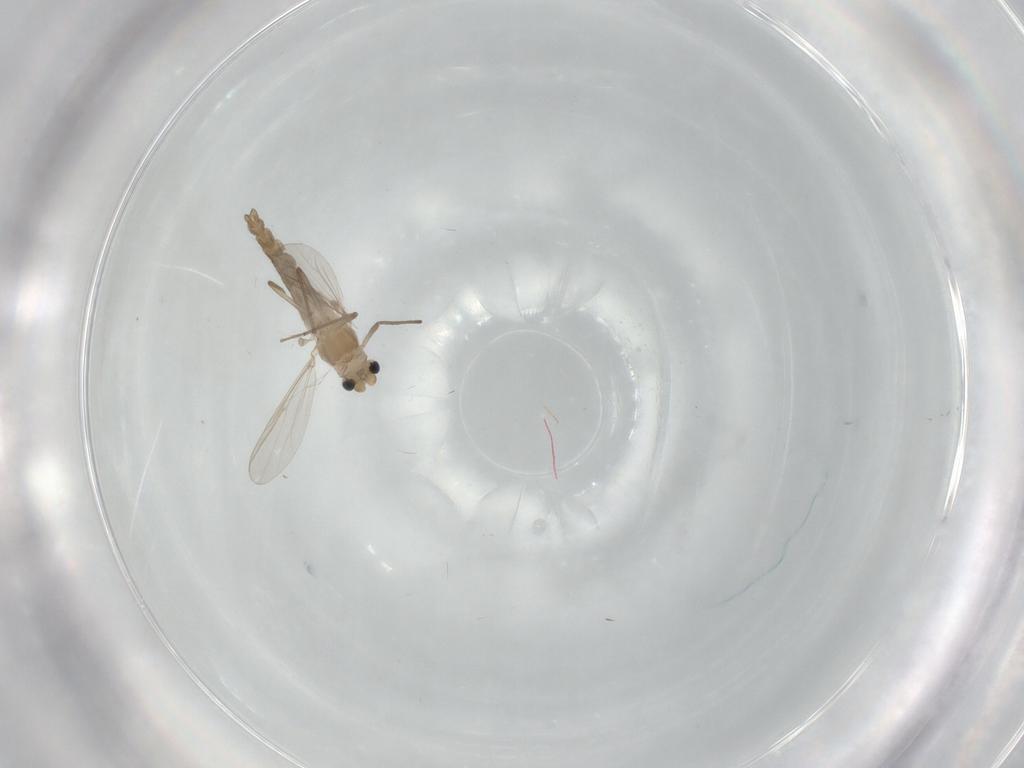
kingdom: Animalia
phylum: Arthropoda
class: Insecta
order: Diptera
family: Chironomidae
